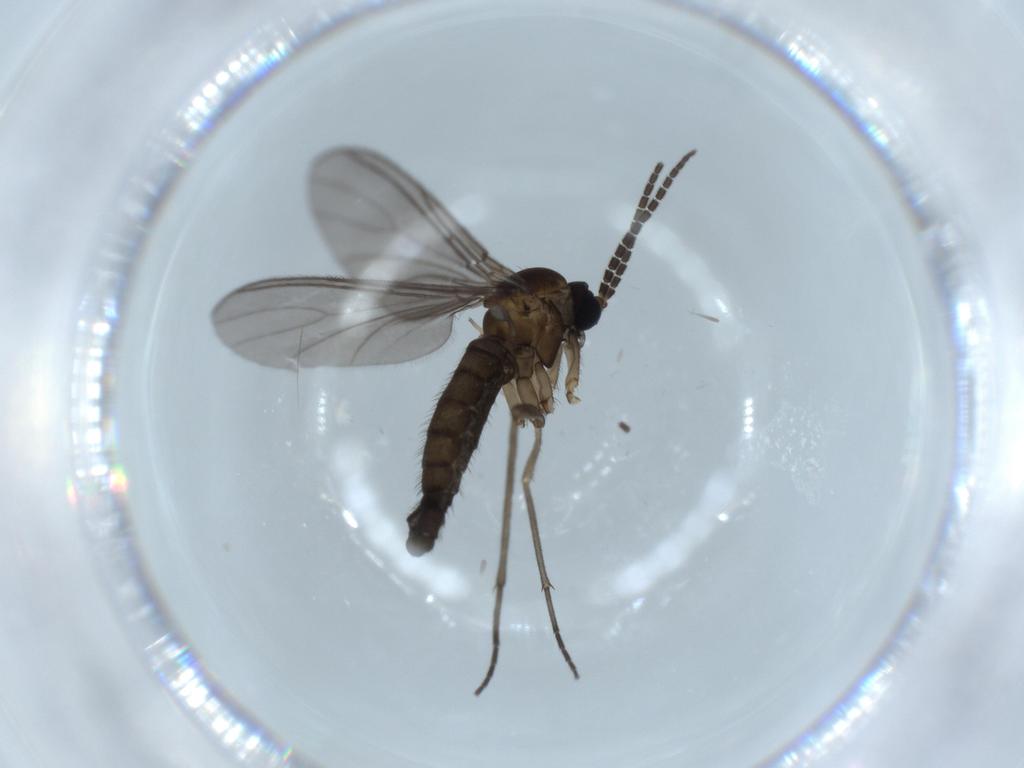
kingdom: Animalia
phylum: Arthropoda
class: Insecta
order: Diptera
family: Sciaridae
